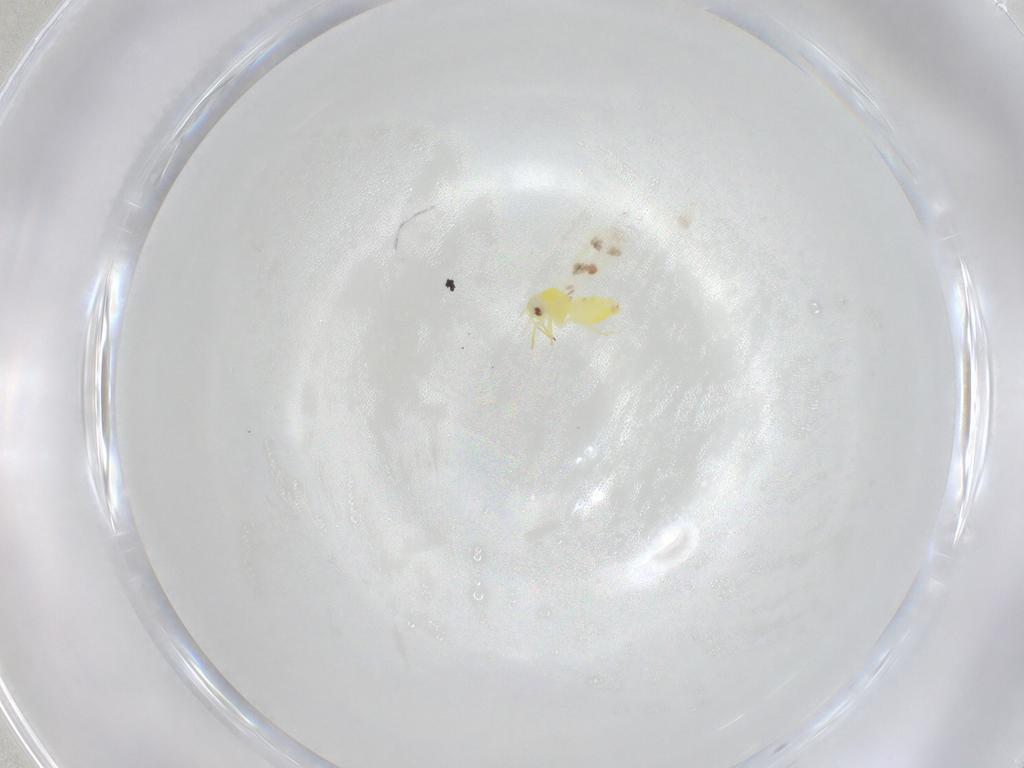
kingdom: Animalia
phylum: Arthropoda
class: Insecta
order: Hemiptera
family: Aleyrodidae
